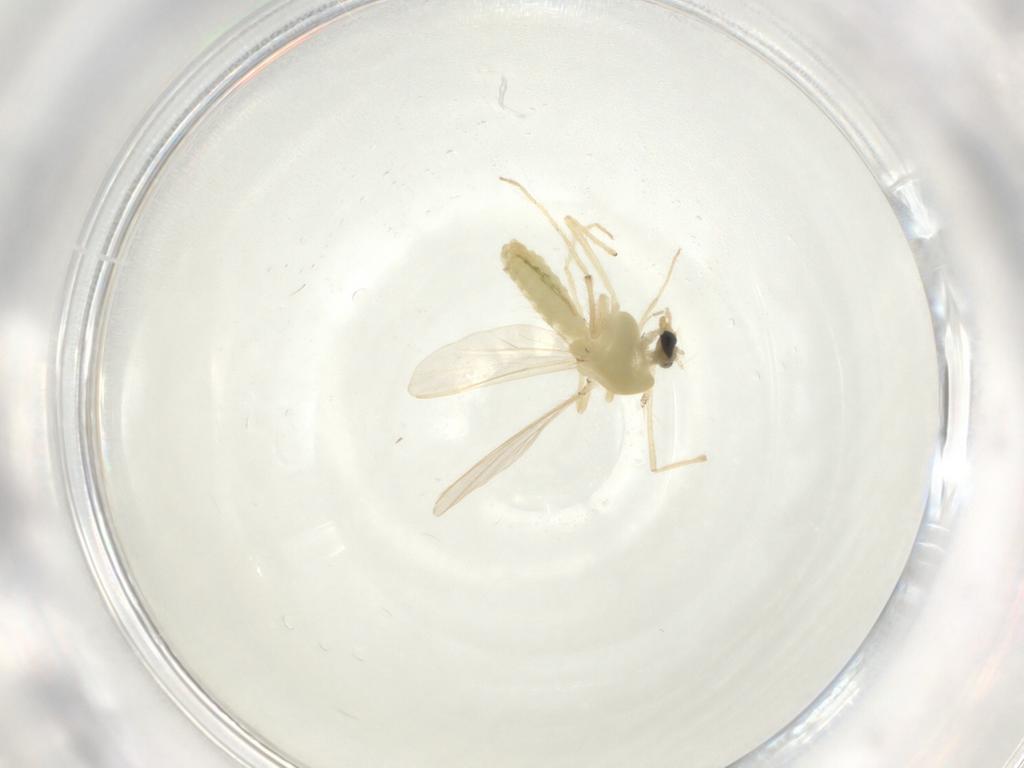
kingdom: Animalia
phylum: Arthropoda
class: Insecta
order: Diptera
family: Chironomidae
